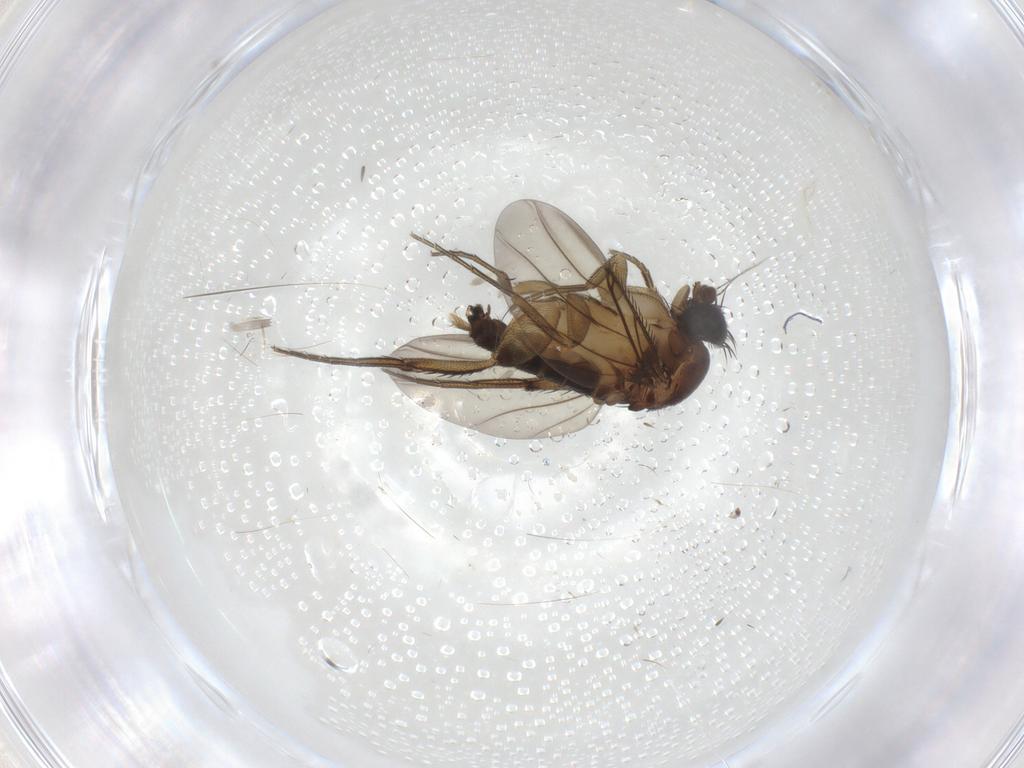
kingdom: Animalia
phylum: Arthropoda
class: Insecta
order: Diptera
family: Phoridae
